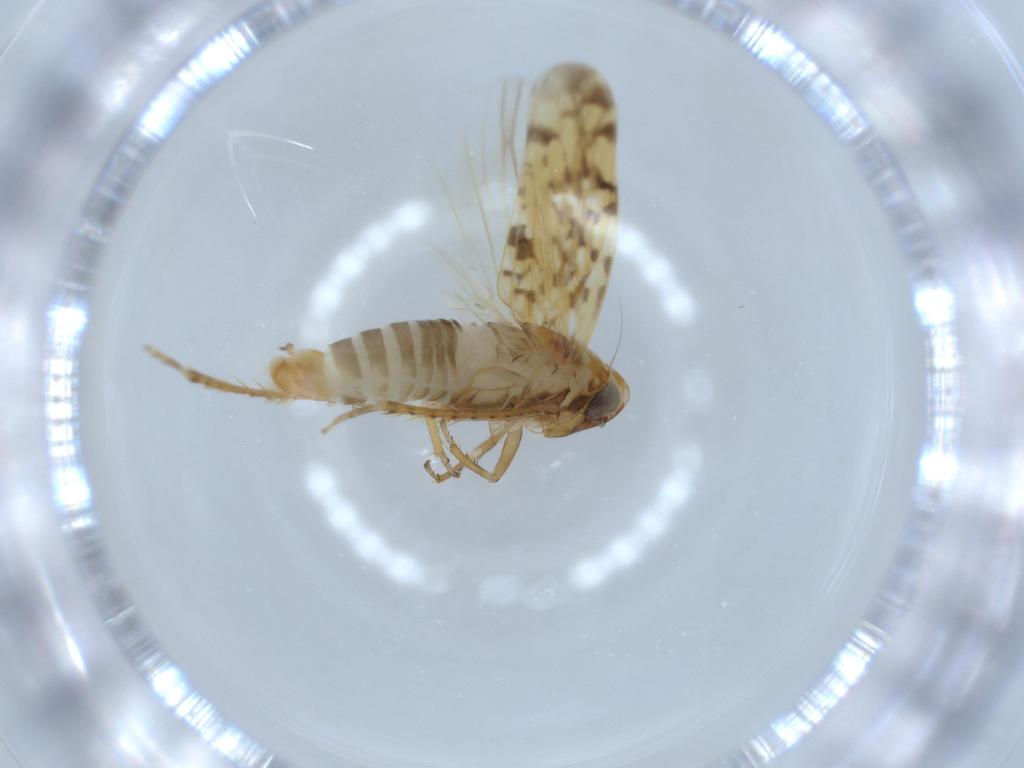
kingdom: Animalia
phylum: Arthropoda
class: Insecta
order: Hemiptera
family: Cicadellidae
